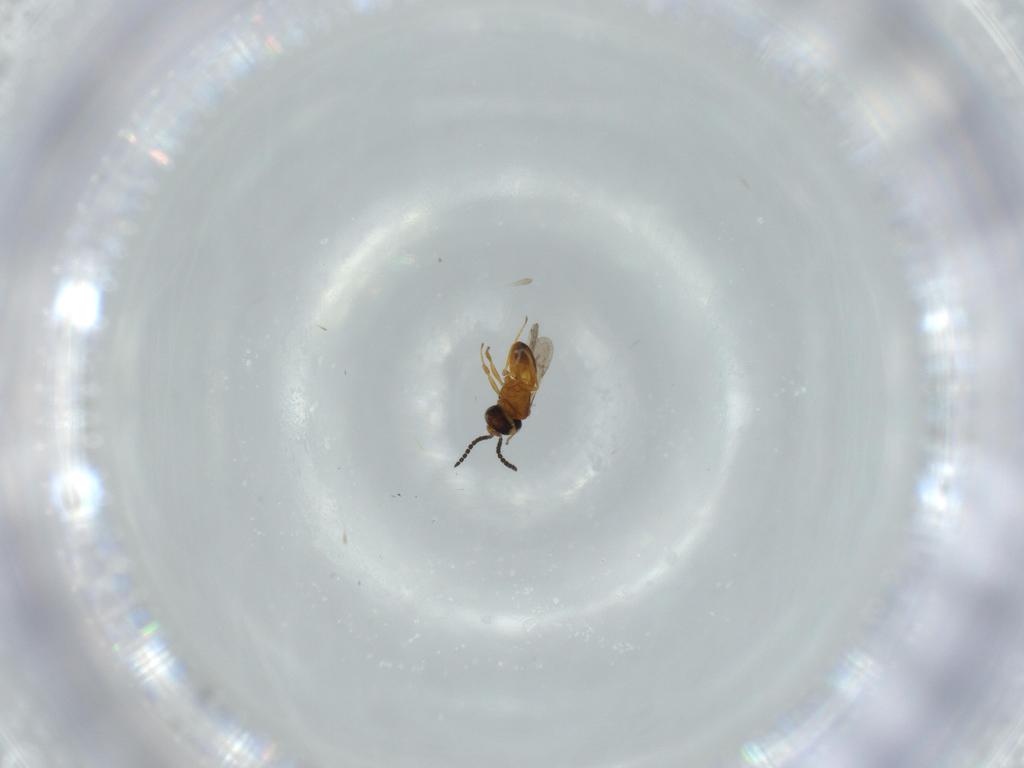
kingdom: Animalia
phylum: Arthropoda
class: Insecta
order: Hymenoptera
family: Scelionidae
